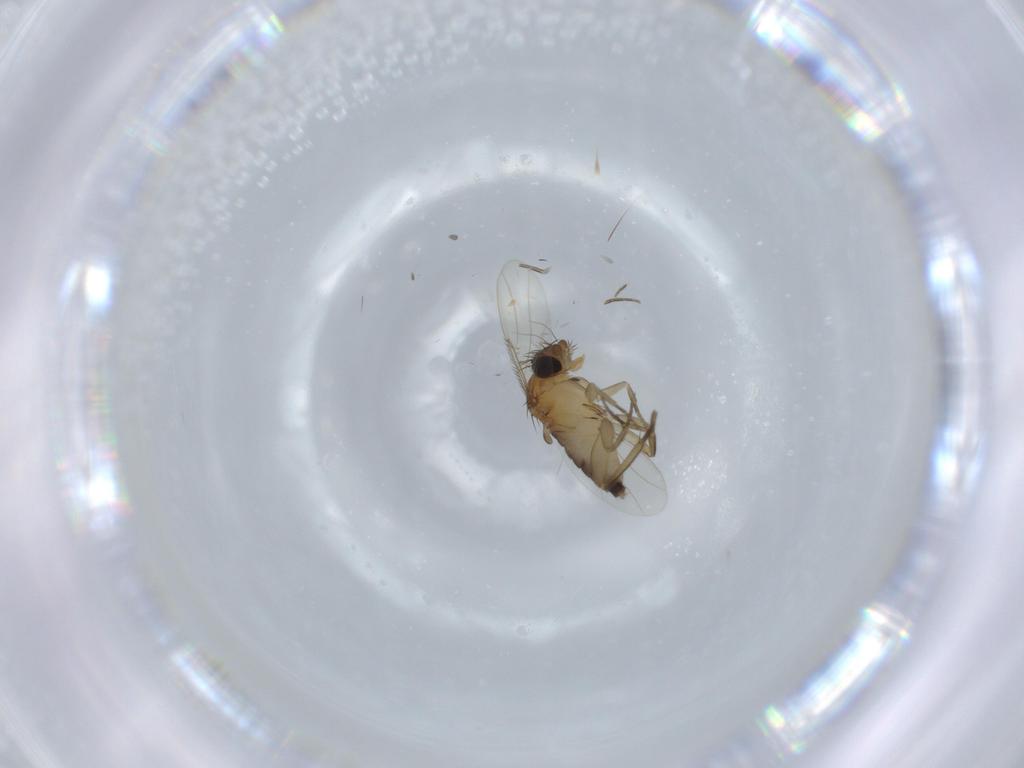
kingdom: Animalia
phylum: Arthropoda
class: Insecta
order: Diptera
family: Phoridae
